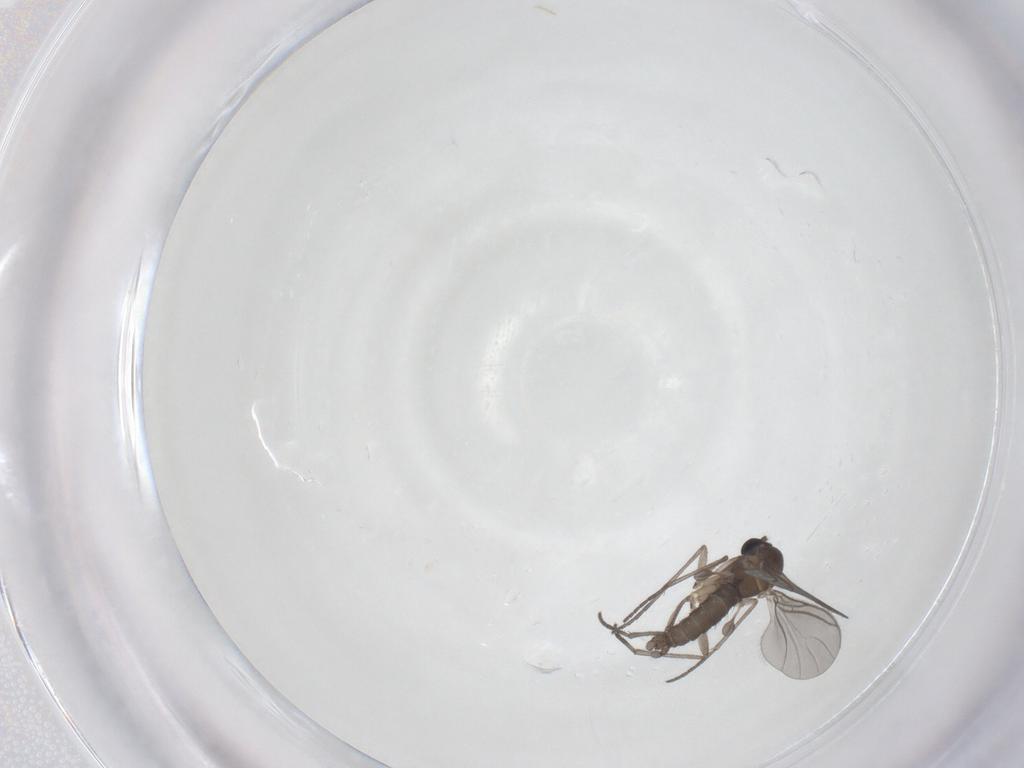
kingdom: Animalia
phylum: Arthropoda
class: Insecta
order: Diptera
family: Sciaridae
